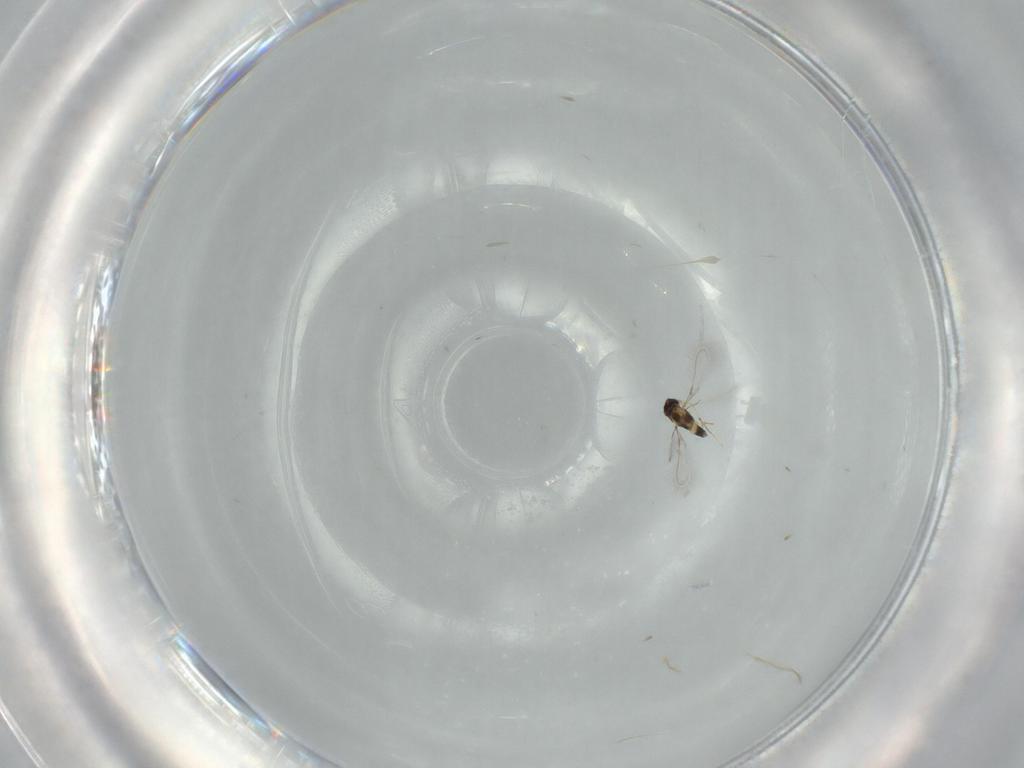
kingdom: Animalia
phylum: Arthropoda
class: Insecta
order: Hymenoptera
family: Mymaridae
